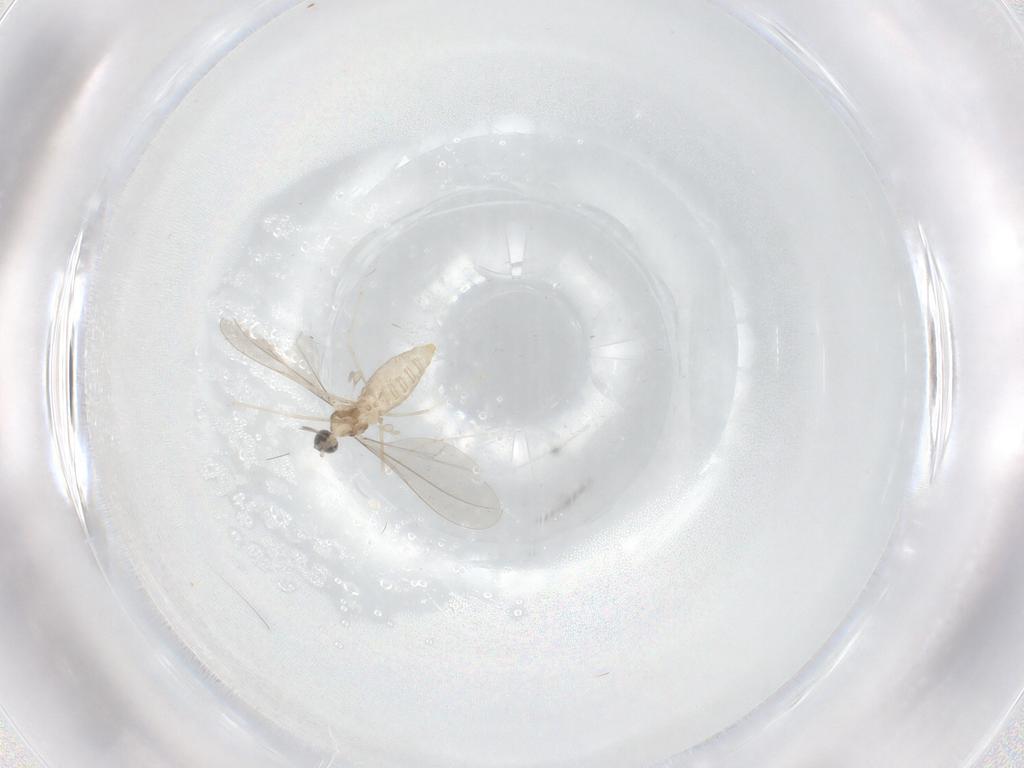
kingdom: Animalia
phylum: Arthropoda
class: Insecta
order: Diptera
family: Cecidomyiidae
